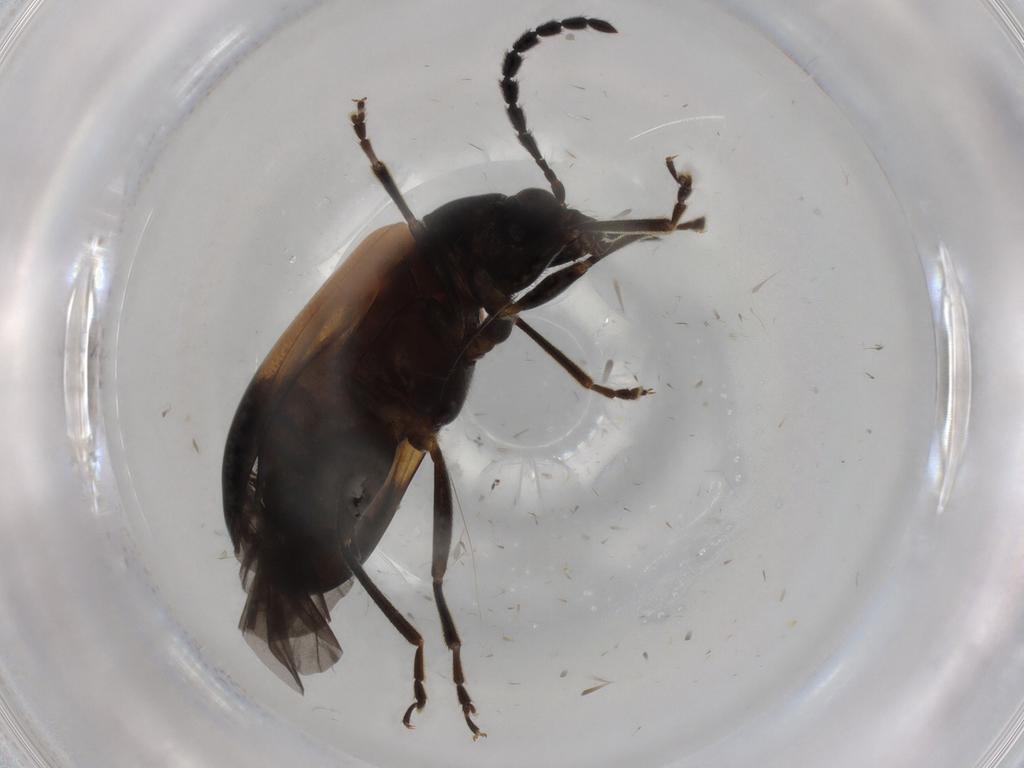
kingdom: Animalia
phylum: Arthropoda
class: Insecta
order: Coleoptera
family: Chrysomelidae
